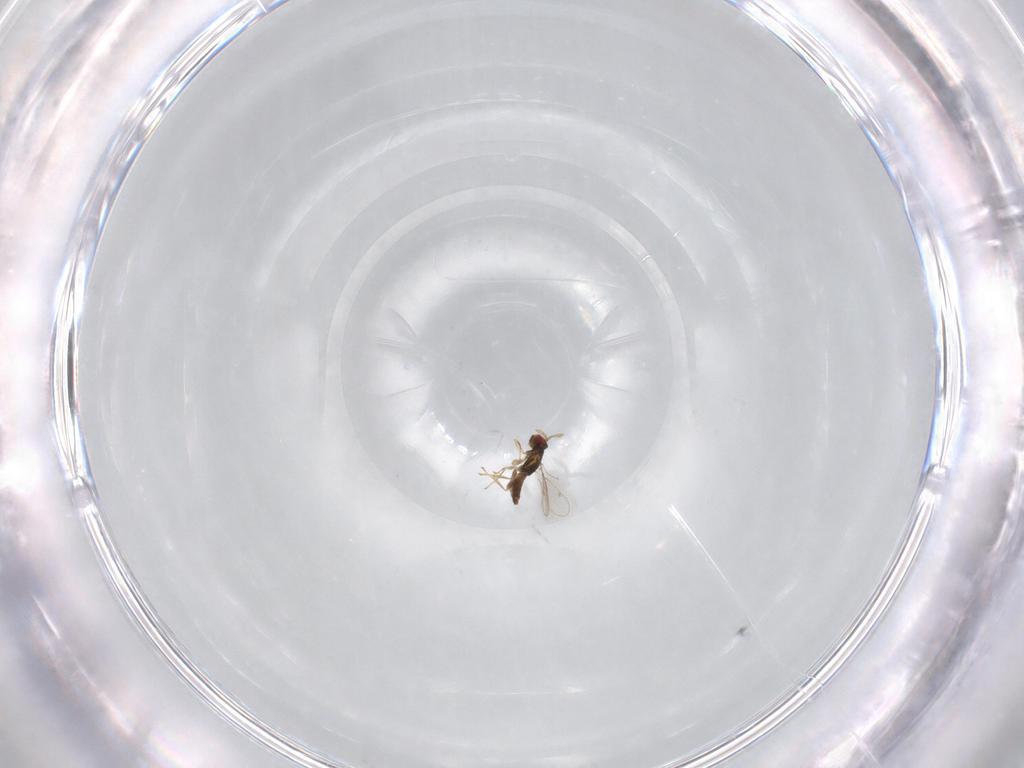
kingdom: Animalia
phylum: Arthropoda
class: Insecta
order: Hymenoptera
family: Eulophidae
